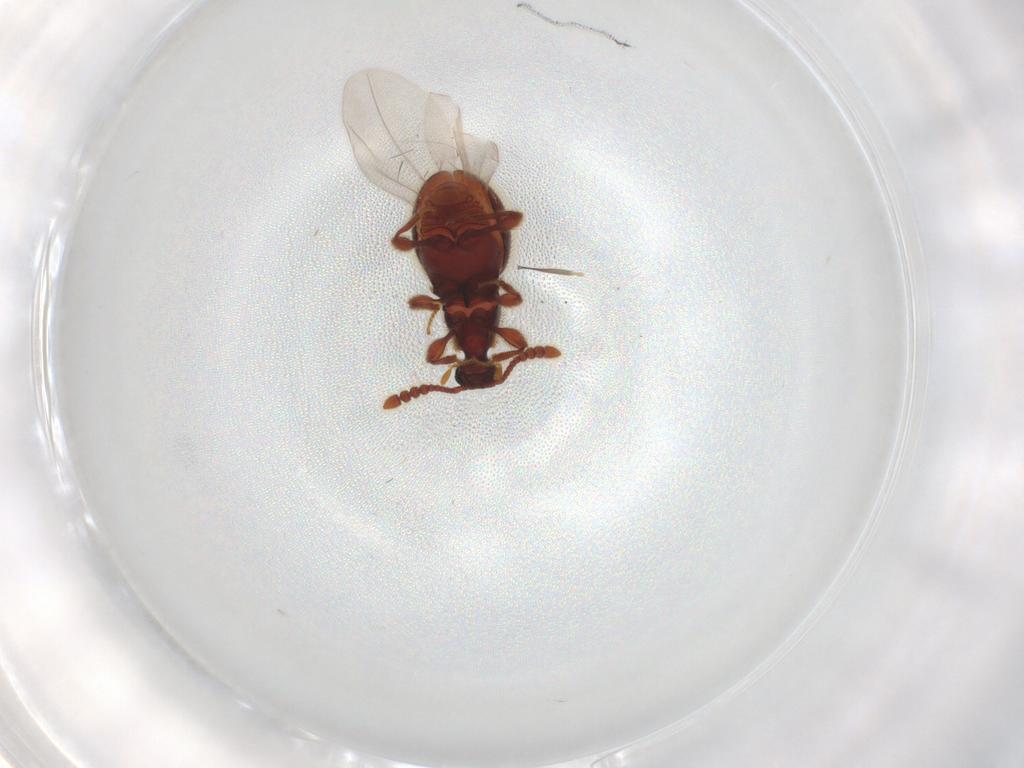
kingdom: Animalia
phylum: Arthropoda
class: Insecta
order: Coleoptera
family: Staphylinidae
